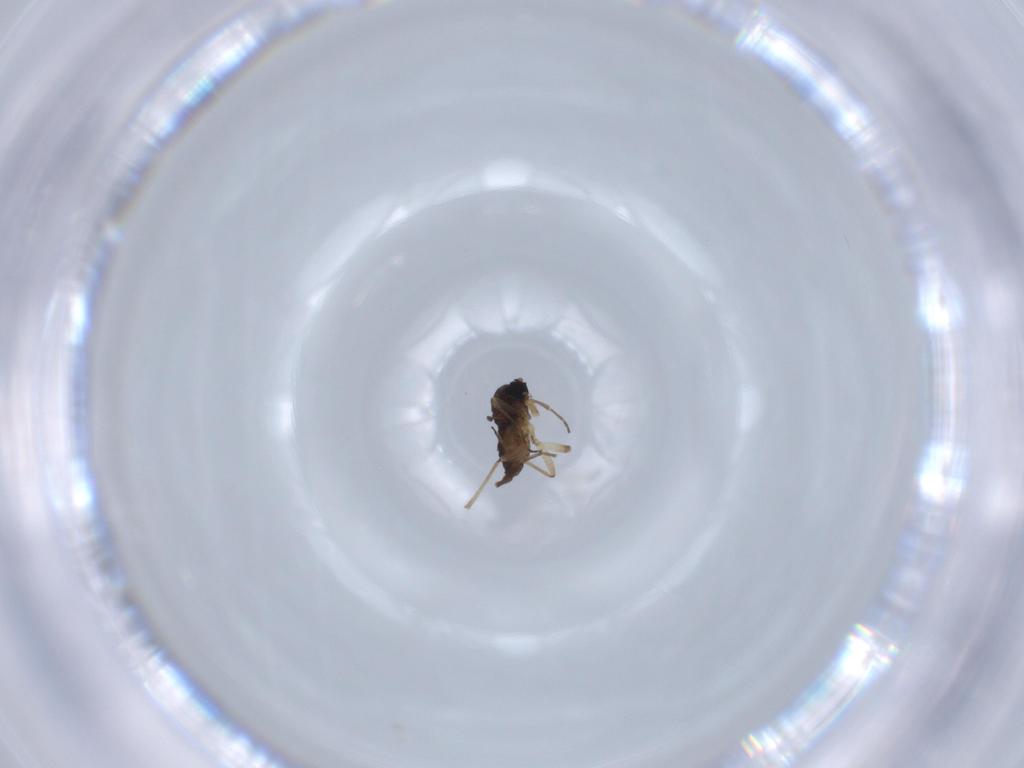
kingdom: Animalia
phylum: Arthropoda
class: Insecta
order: Diptera
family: Sciaridae
